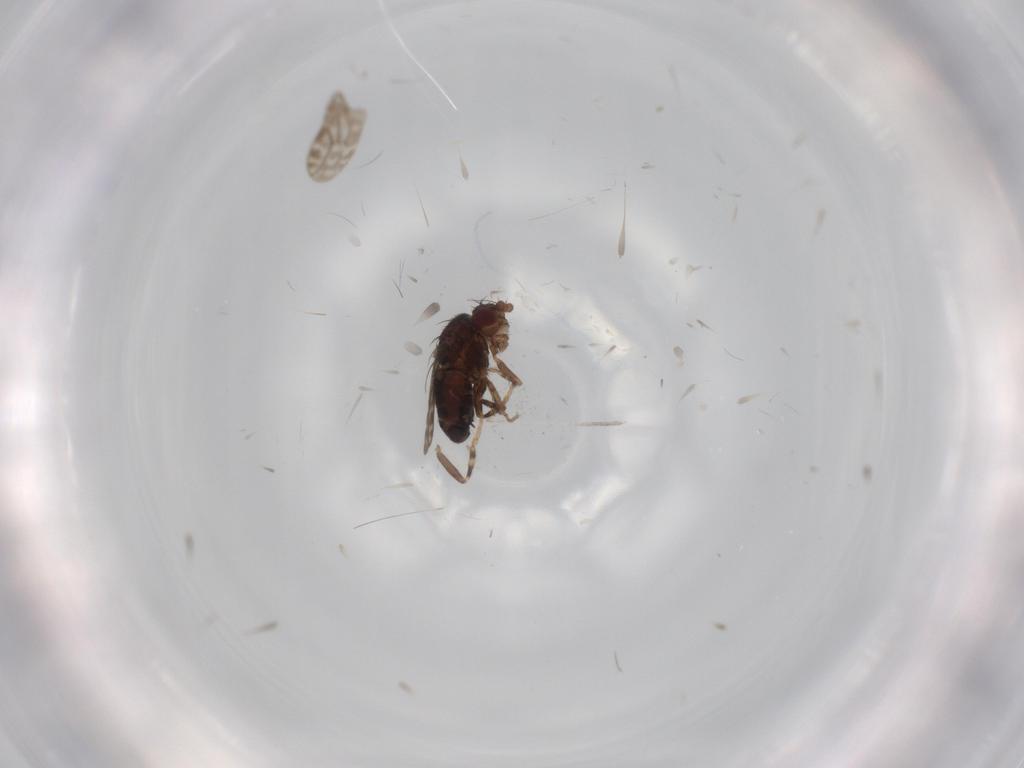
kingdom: Animalia
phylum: Arthropoda
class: Insecta
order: Diptera
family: Sphaeroceridae
